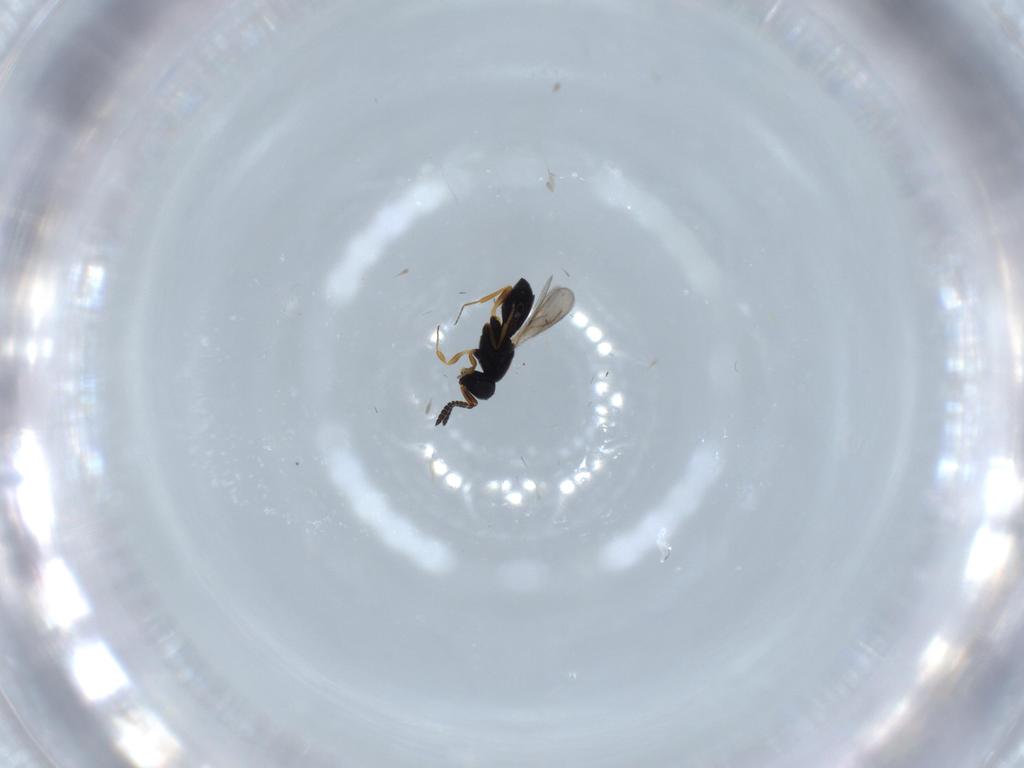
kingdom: Animalia
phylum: Arthropoda
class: Insecta
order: Hymenoptera
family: Scelionidae
